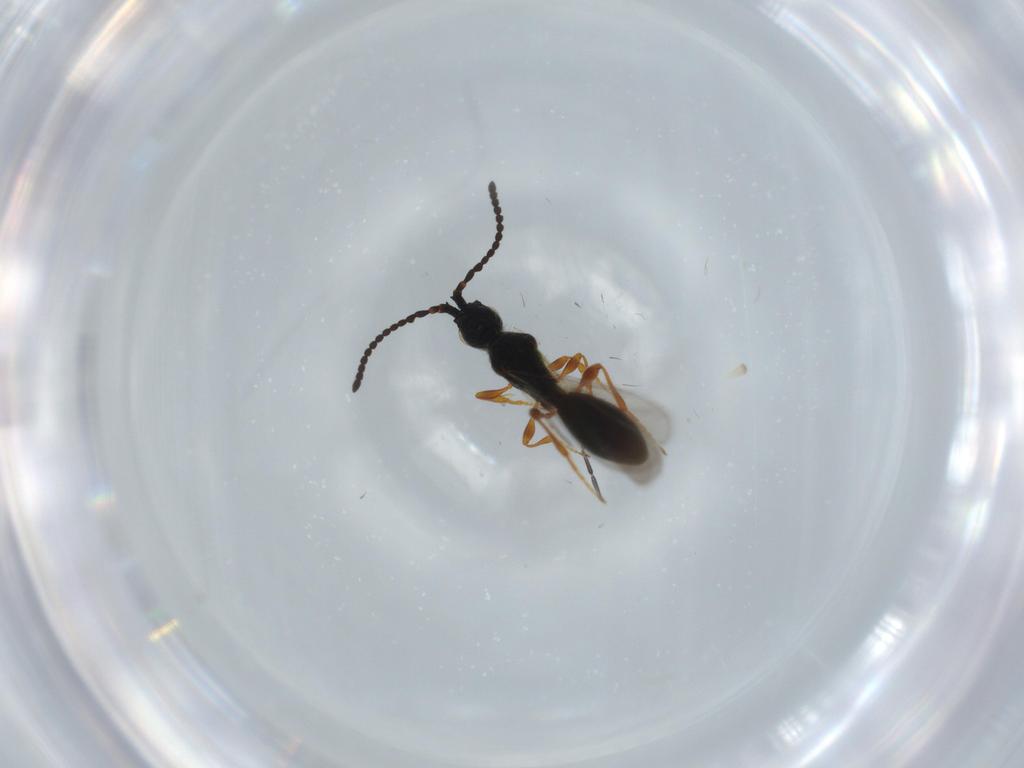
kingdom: Animalia
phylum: Arthropoda
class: Insecta
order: Hymenoptera
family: Diapriidae
